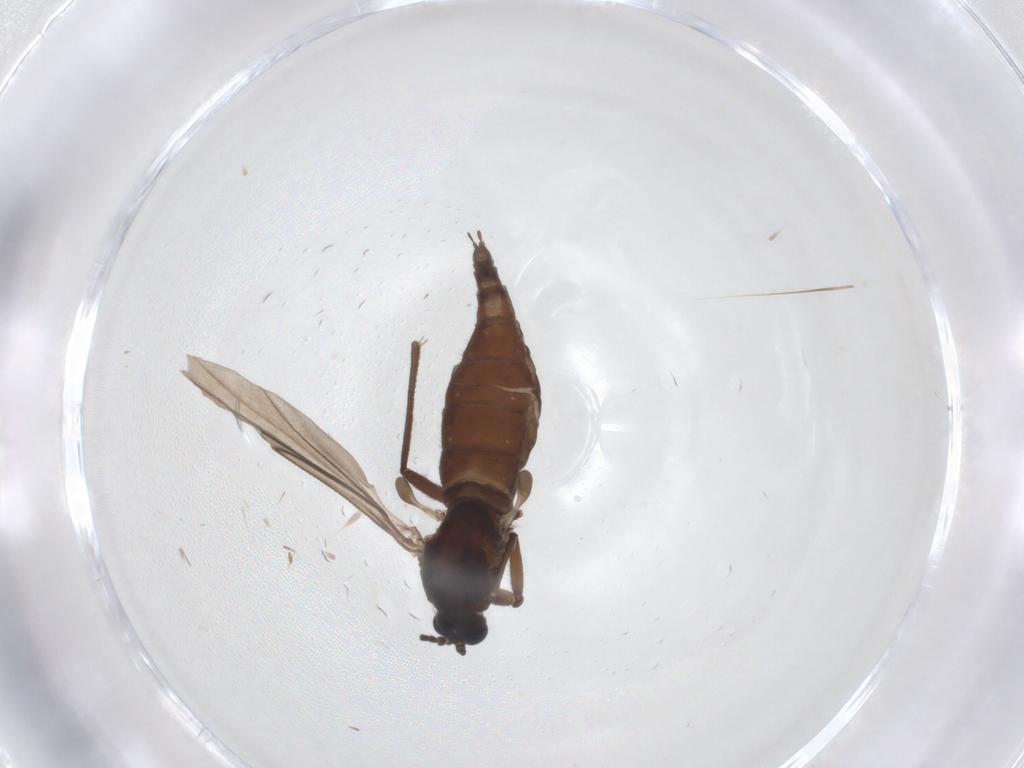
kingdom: Animalia
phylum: Arthropoda
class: Insecta
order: Diptera
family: Sciaridae
